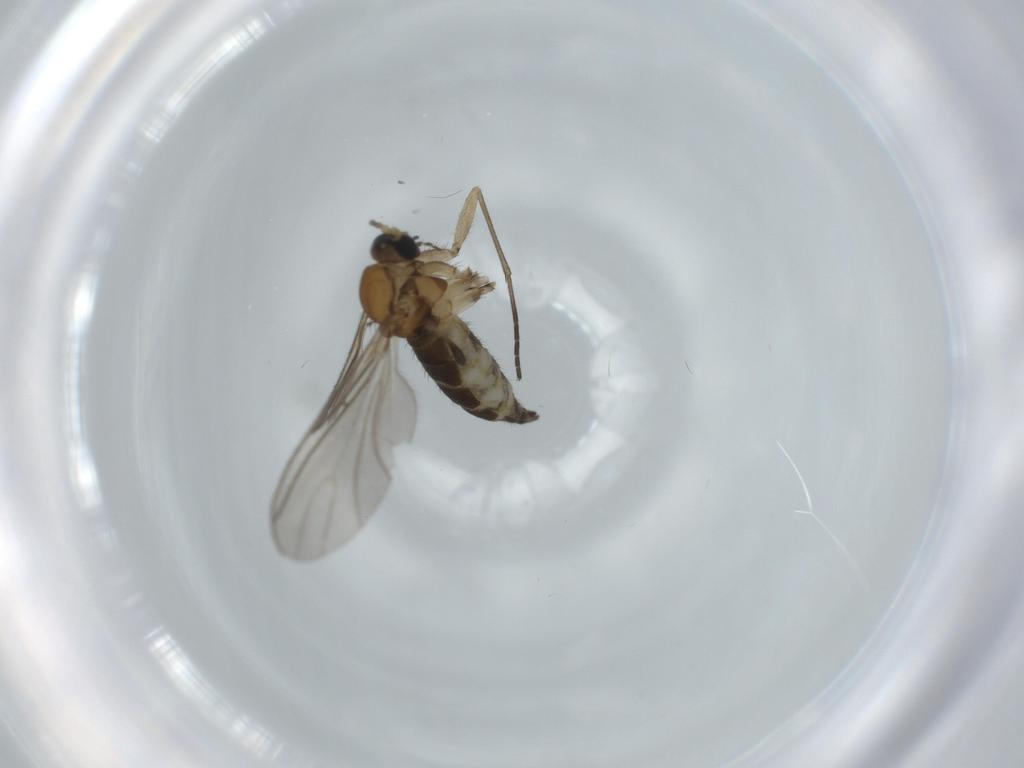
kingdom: Animalia
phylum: Arthropoda
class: Insecta
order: Diptera
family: Sciaridae
